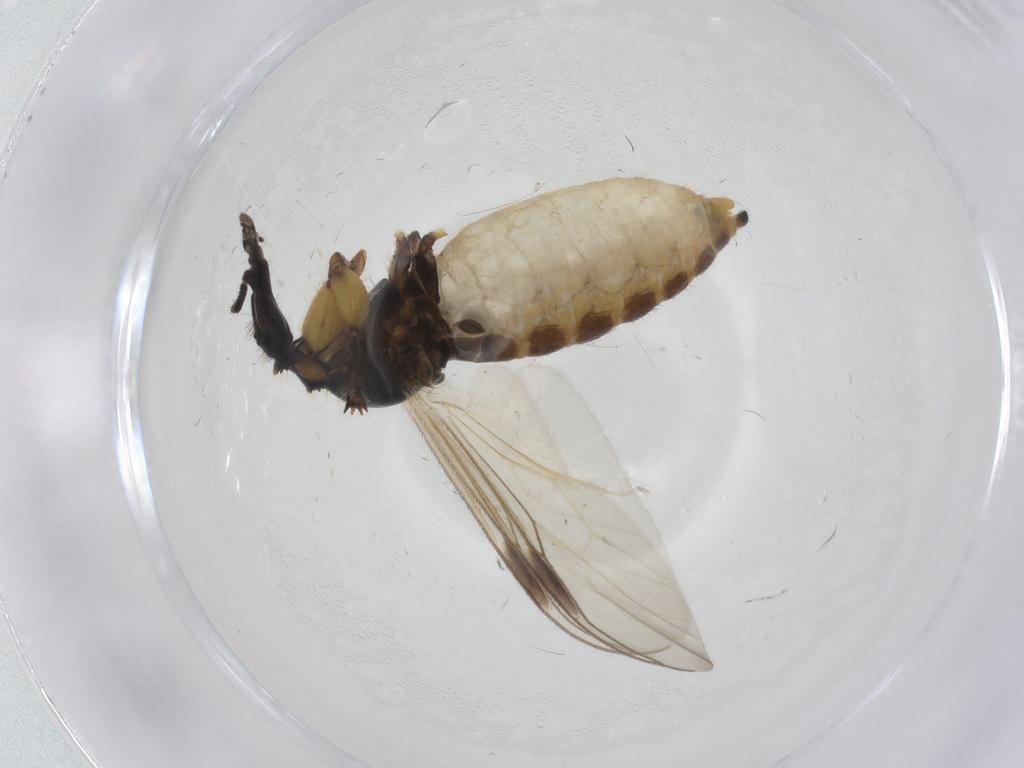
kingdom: Animalia
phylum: Arthropoda
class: Insecta
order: Diptera
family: Bibionidae
